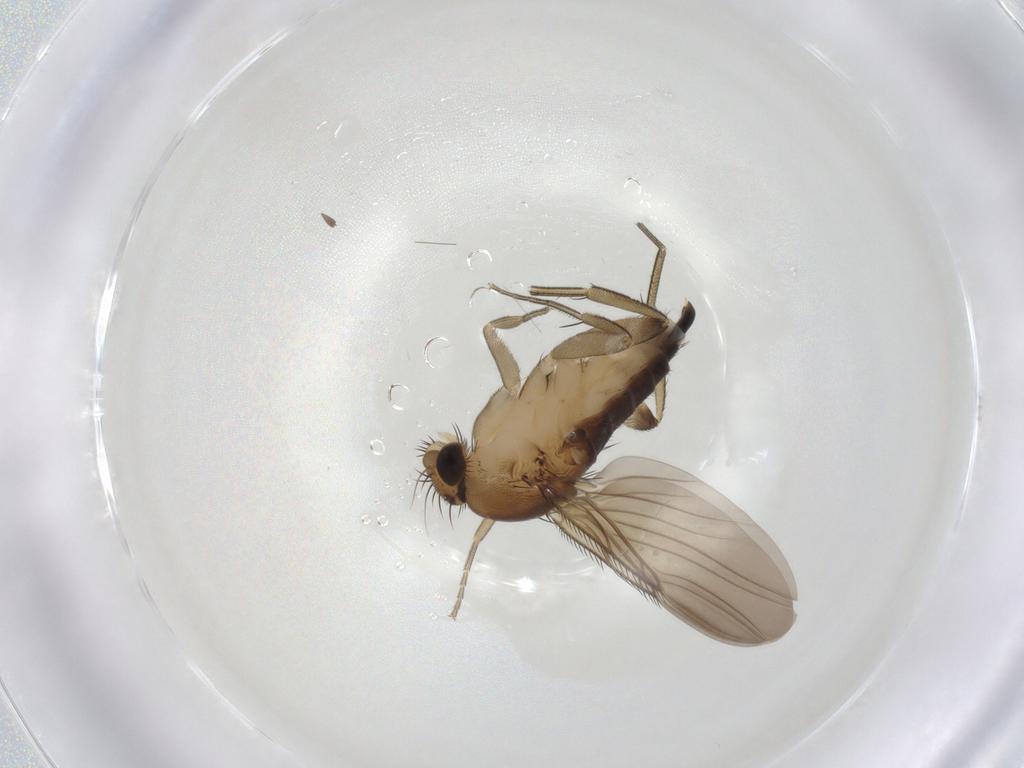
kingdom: Animalia
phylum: Arthropoda
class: Insecta
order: Diptera
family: Phoridae
